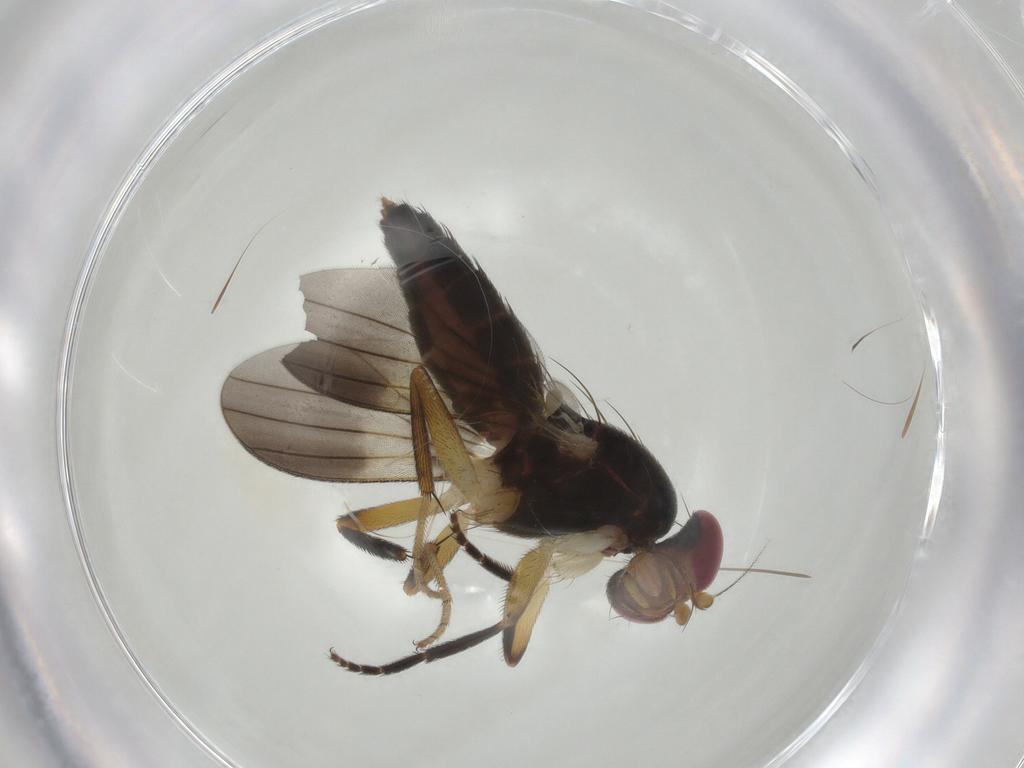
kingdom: Animalia
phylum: Arthropoda
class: Insecta
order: Diptera
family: Clusiidae
